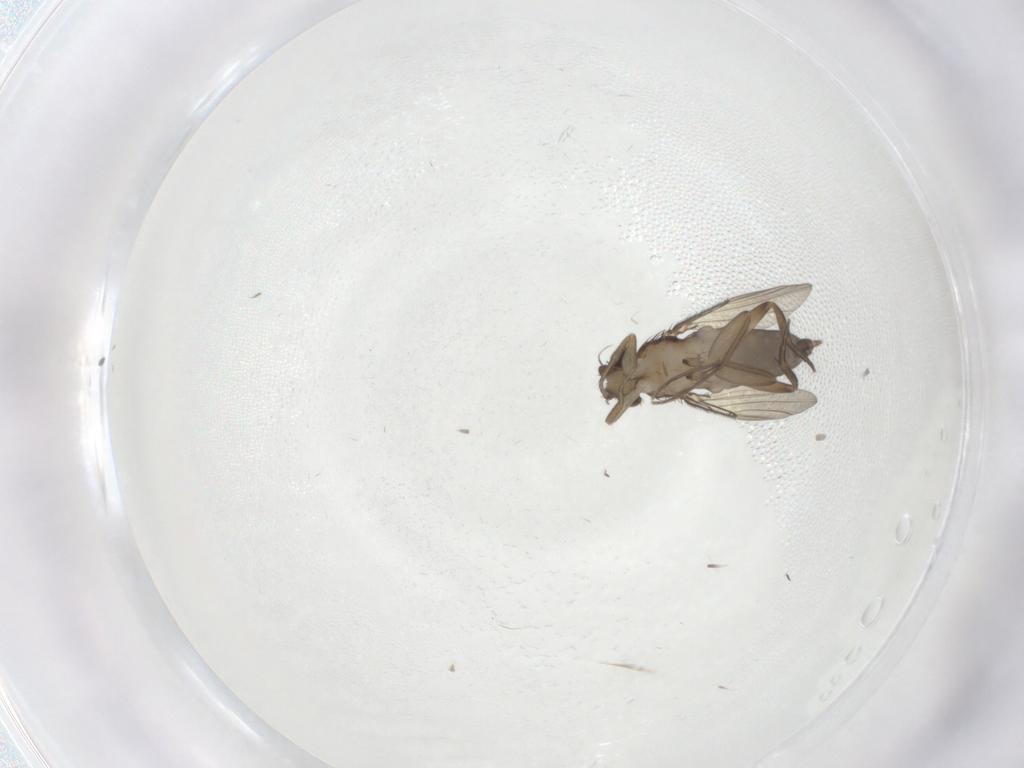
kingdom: Animalia
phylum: Arthropoda
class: Insecta
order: Diptera
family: Phoridae
